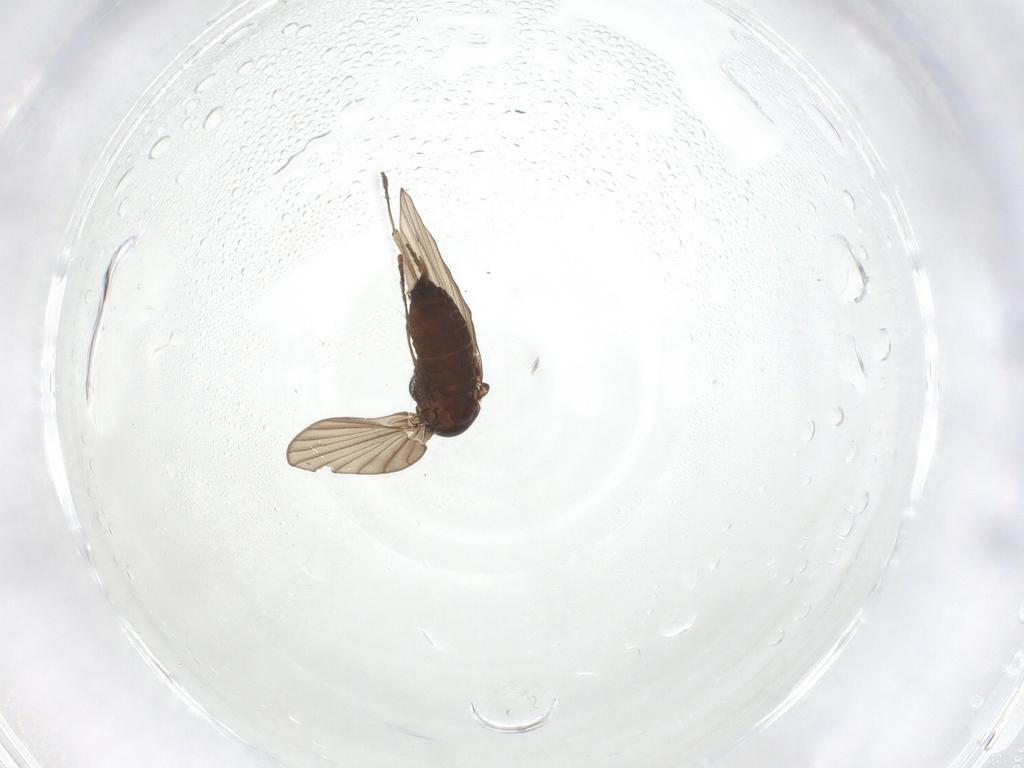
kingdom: Animalia
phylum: Arthropoda
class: Insecta
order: Diptera
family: Psychodidae
